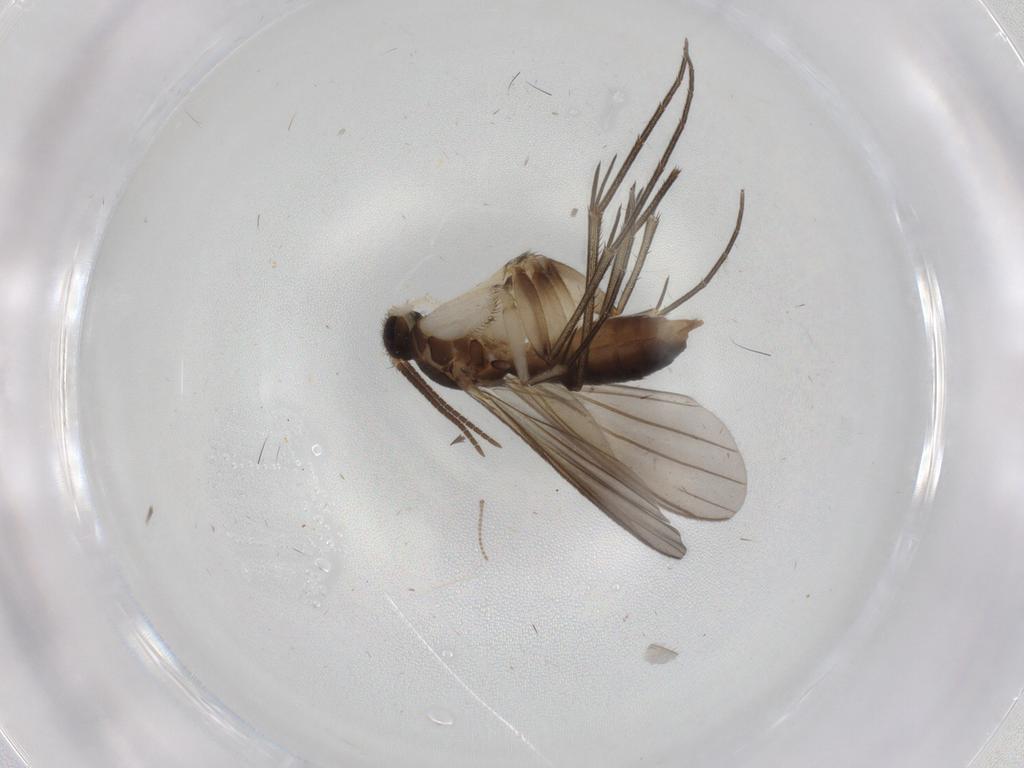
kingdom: Animalia
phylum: Arthropoda
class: Insecta
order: Diptera
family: Mycetophilidae
